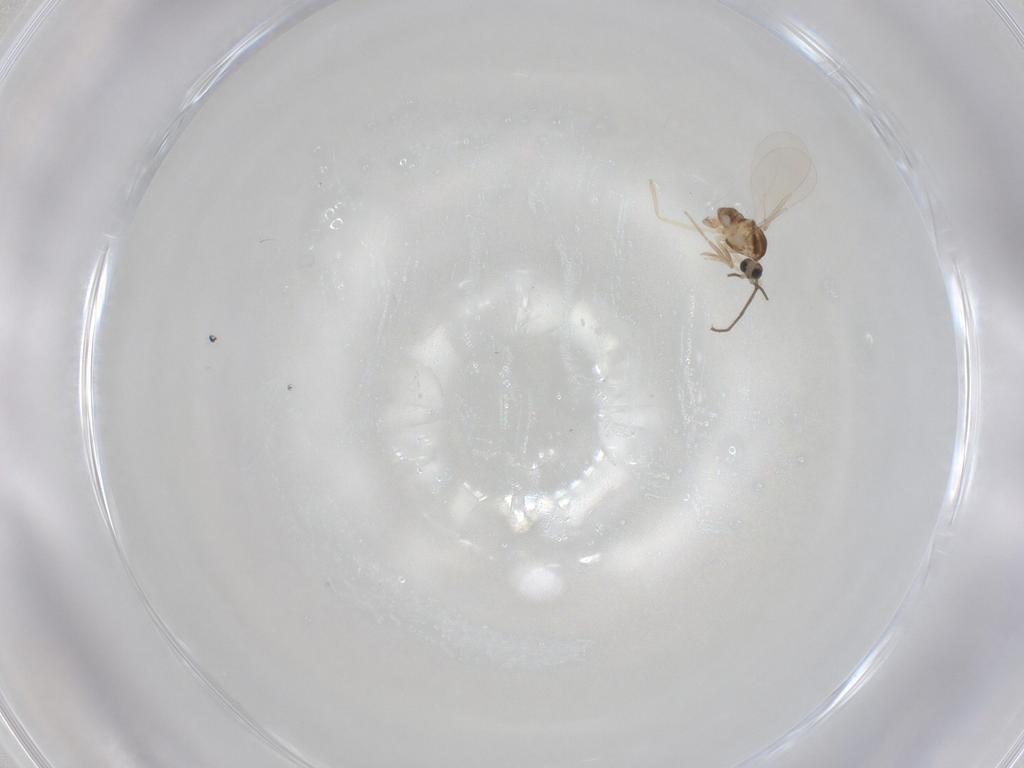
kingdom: Animalia
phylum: Arthropoda
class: Insecta
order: Diptera
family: Cecidomyiidae
